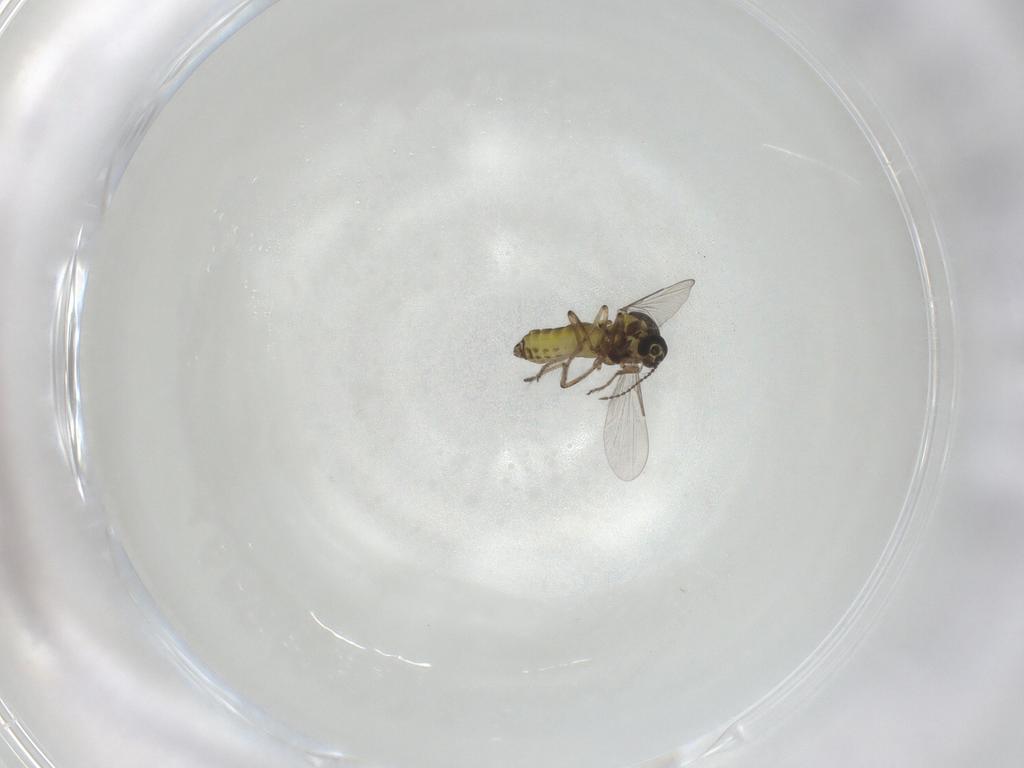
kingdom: Animalia
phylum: Arthropoda
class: Insecta
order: Diptera
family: Ceratopogonidae
